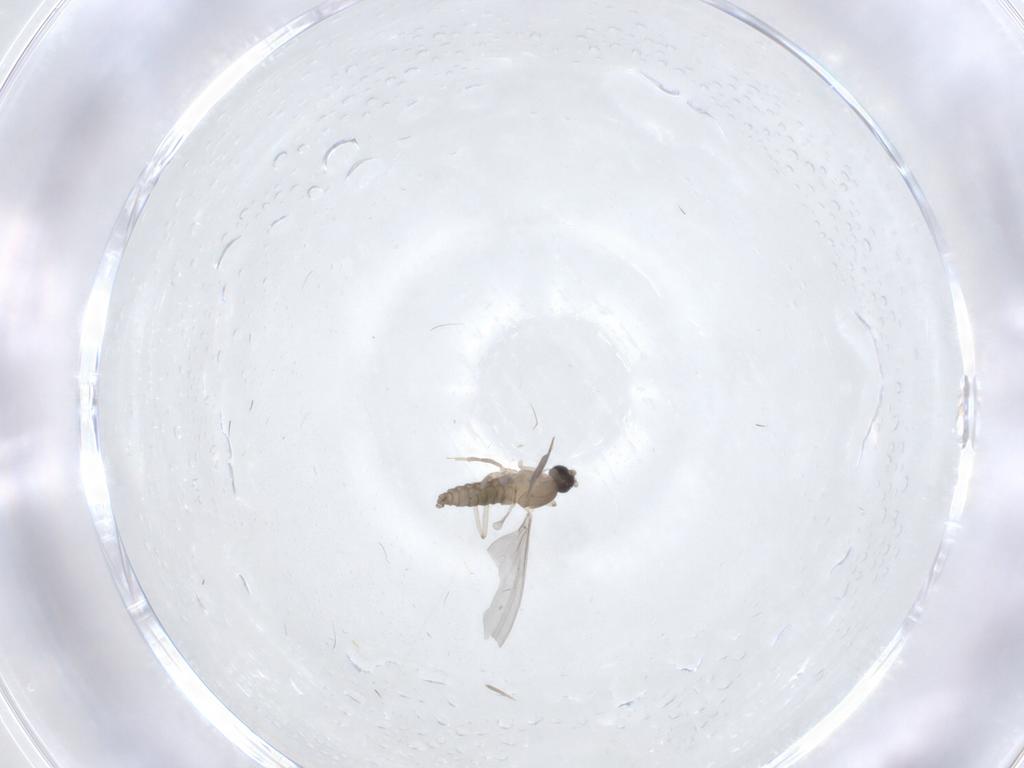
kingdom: Animalia
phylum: Arthropoda
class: Insecta
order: Diptera
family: Cecidomyiidae
